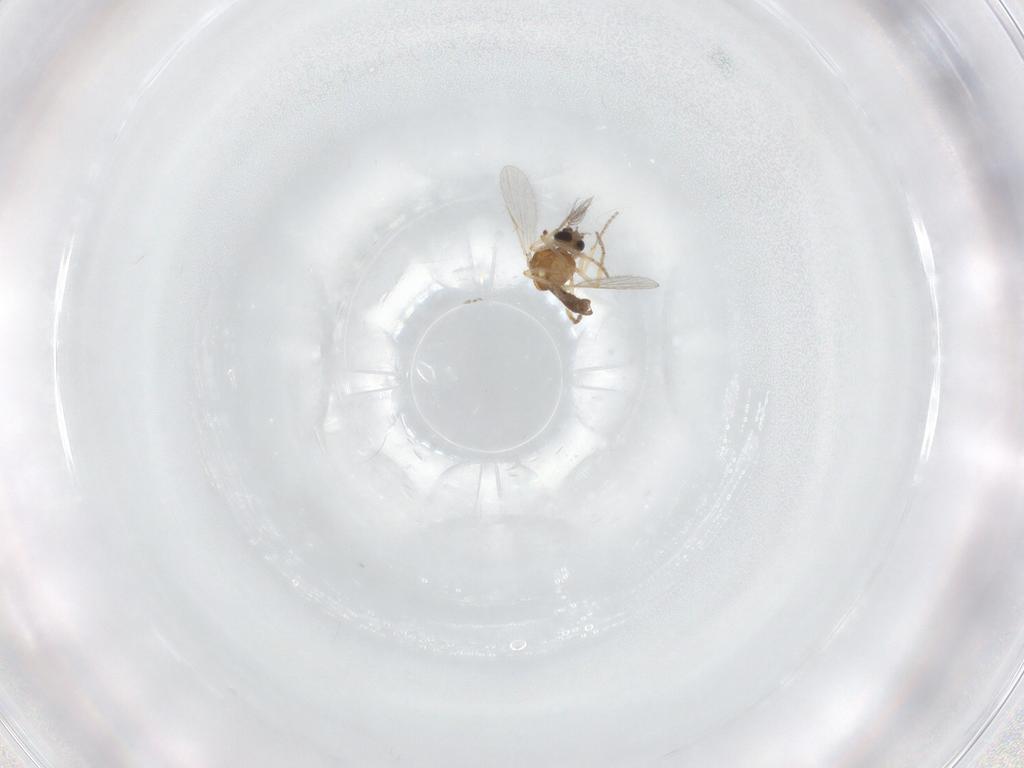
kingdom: Animalia
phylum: Arthropoda
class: Insecta
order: Diptera
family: Ceratopogonidae
